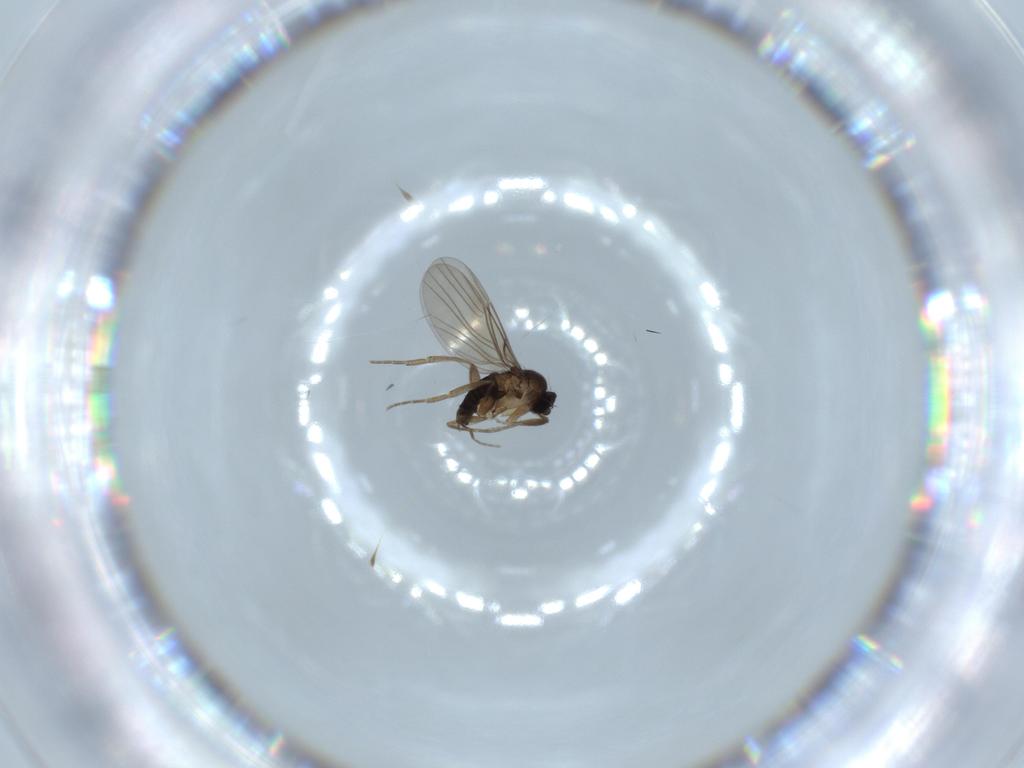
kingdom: Animalia
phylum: Arthropoda
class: Insecta
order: Diptera
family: Sciaridae
